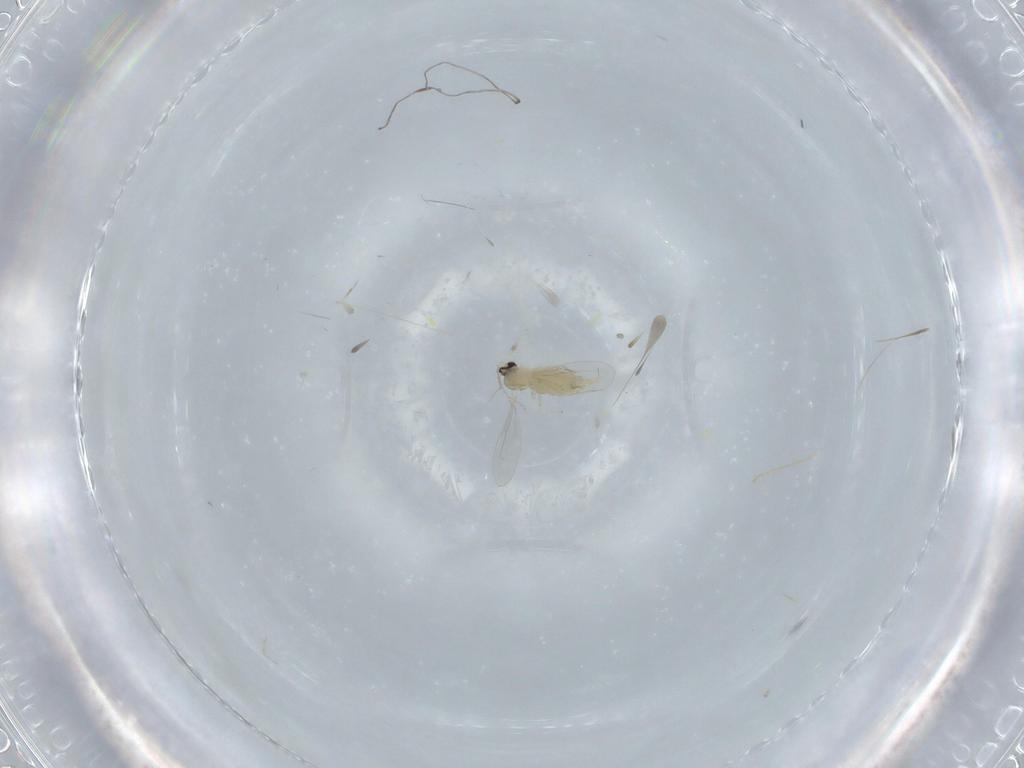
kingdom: Animalia
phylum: Arthropoda
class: Insecta
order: Diptera
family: Cecidomyiidae
